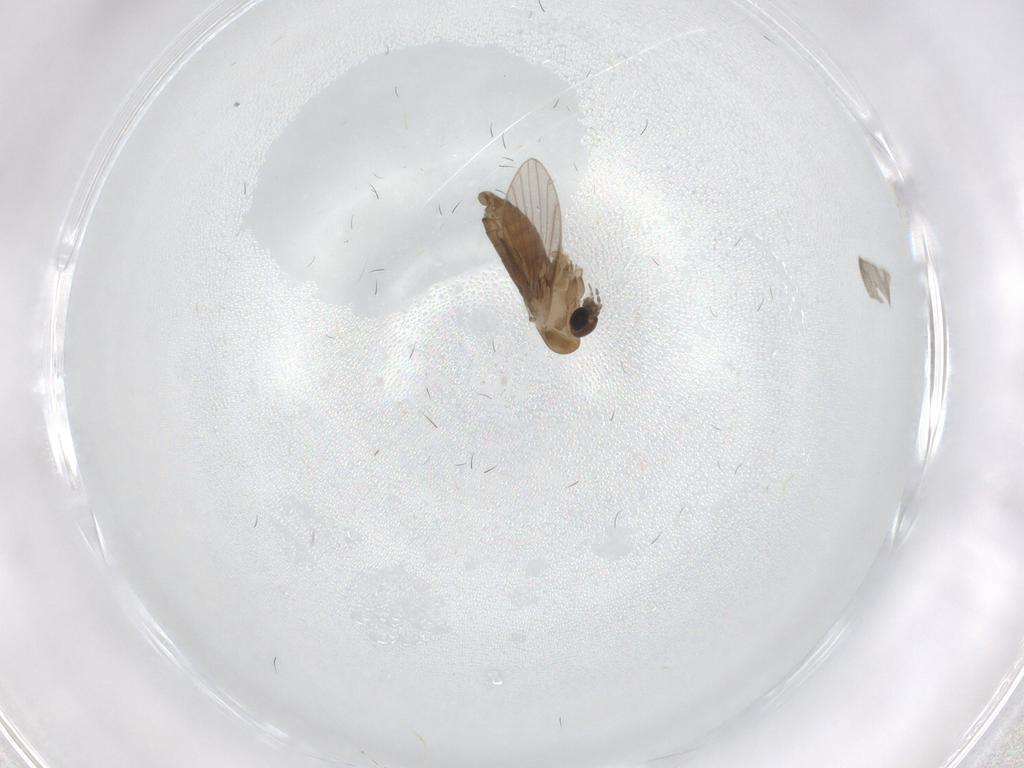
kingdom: Animalia
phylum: Arthropoda
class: Insecta
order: Diptera
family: Psychodidae
